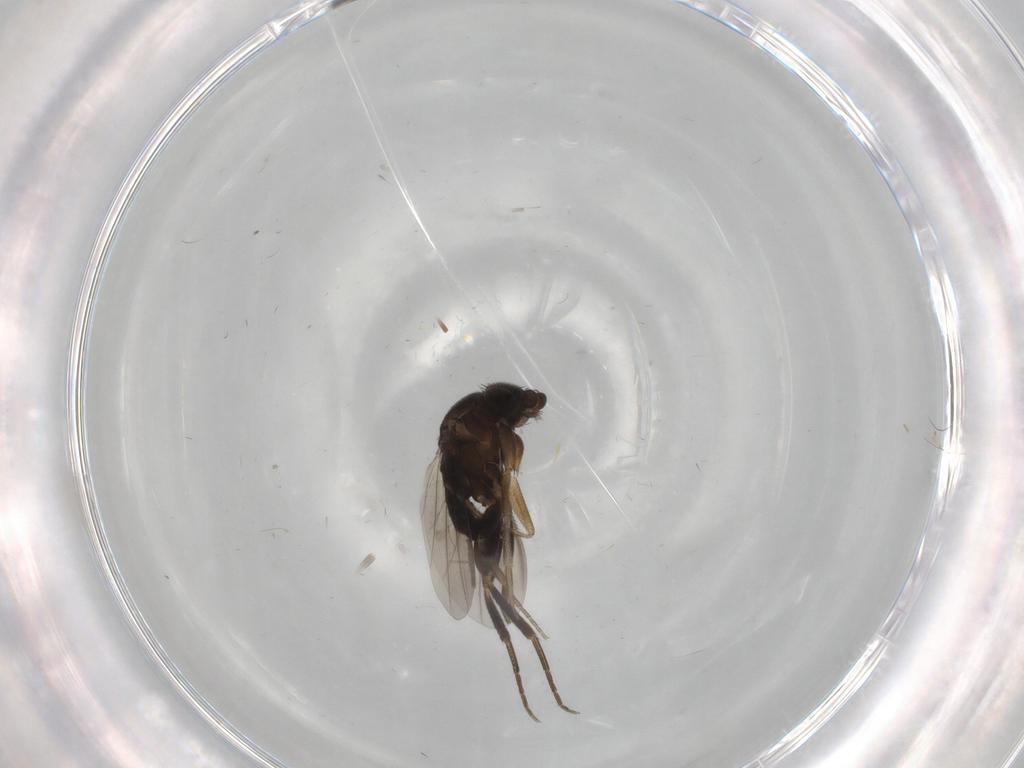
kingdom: Animalia
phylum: Arthropoda
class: Insecta
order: Diptera
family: Cecidomyiidae
